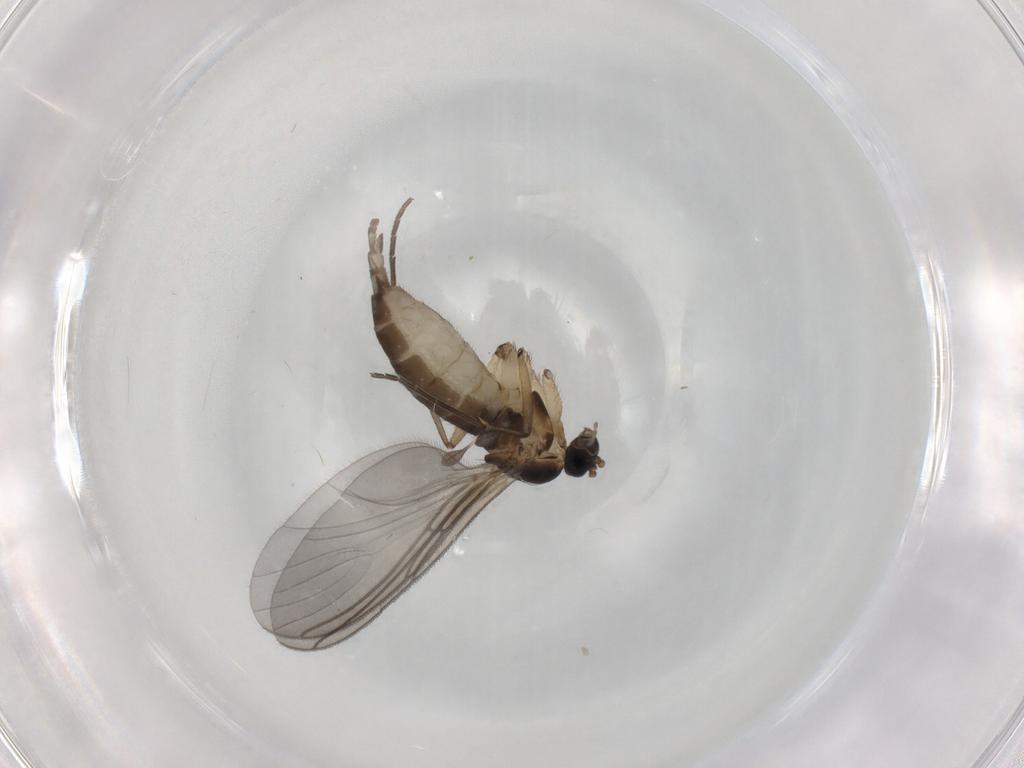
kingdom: Animalia
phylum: Arthropoda
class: Insecta
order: Diptera
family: Sciaridae
